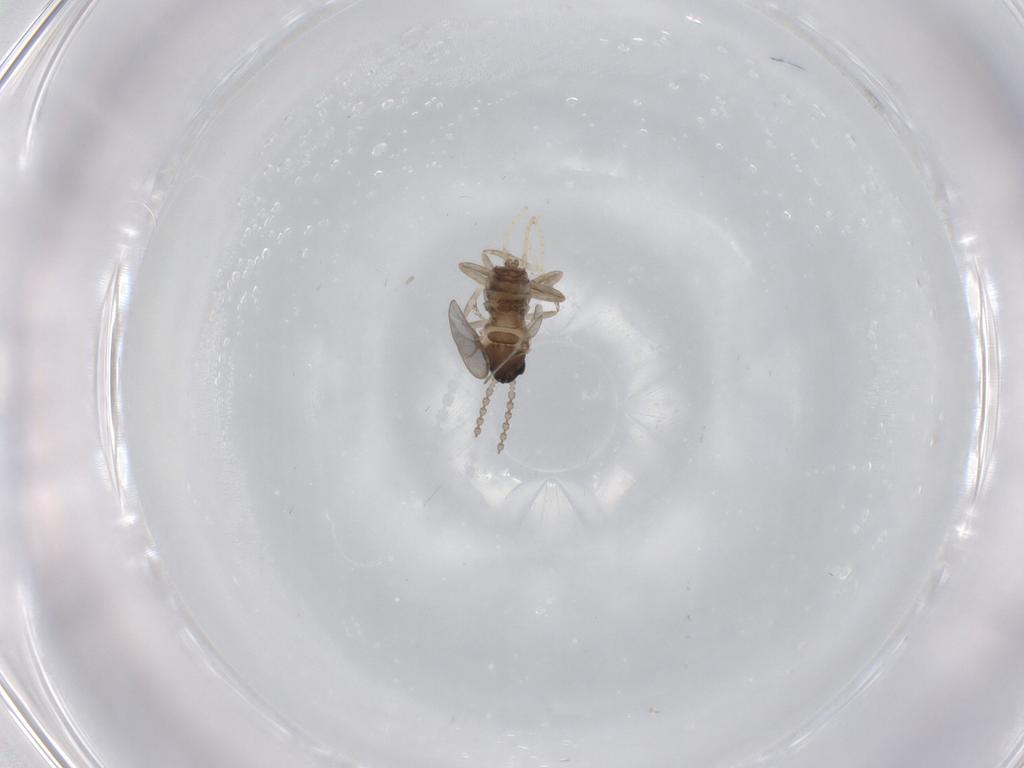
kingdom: Animalia
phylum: Arthropoda
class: Insecta
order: Diptera
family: Cecidomyiidae
